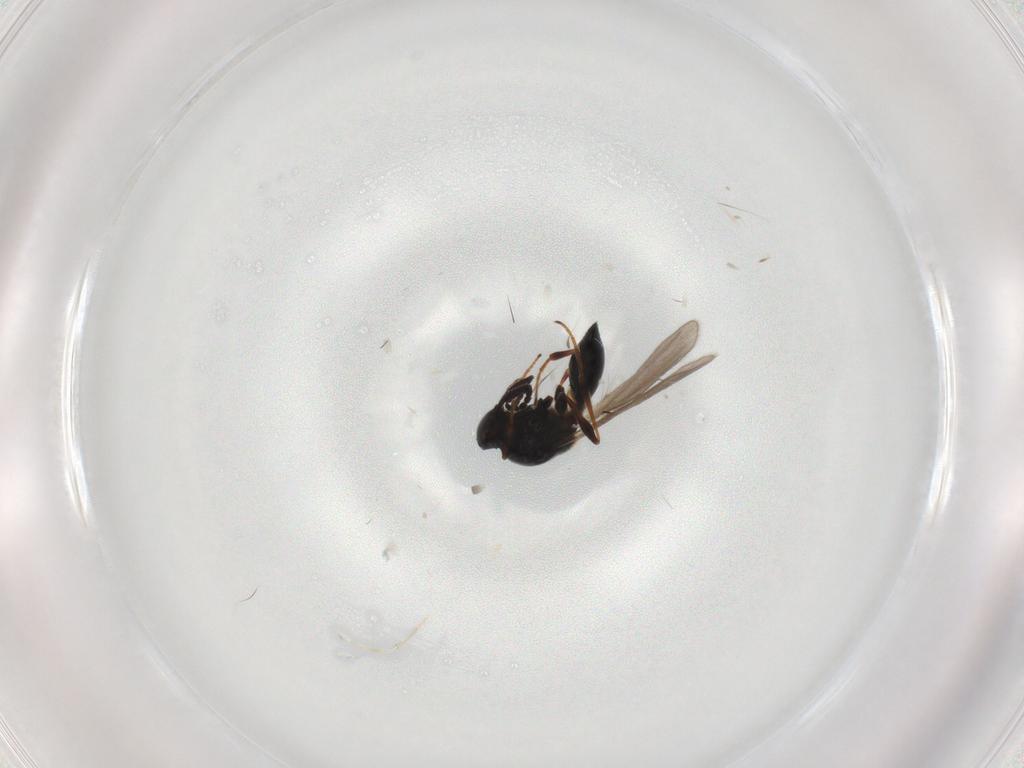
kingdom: Animalia
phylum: Arthropoda
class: Insecta
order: Hymenoptera
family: Platygastridae
